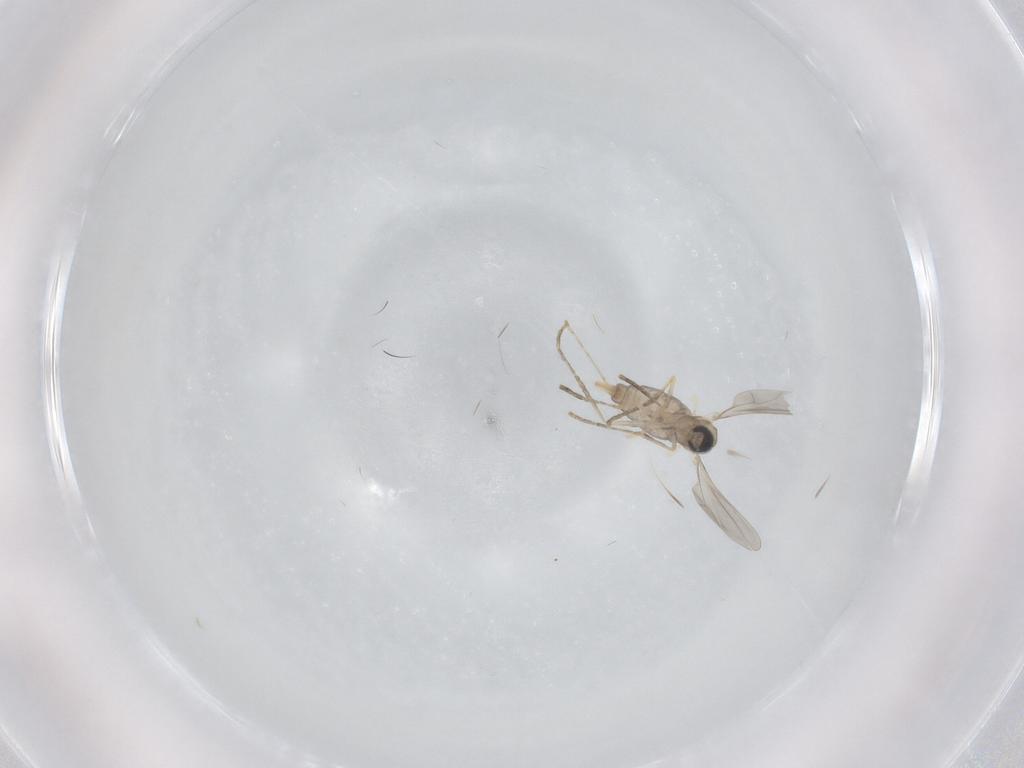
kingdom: Animalia
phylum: Arthropoda
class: Insecta
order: Diptera
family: Cecidomyiidae
